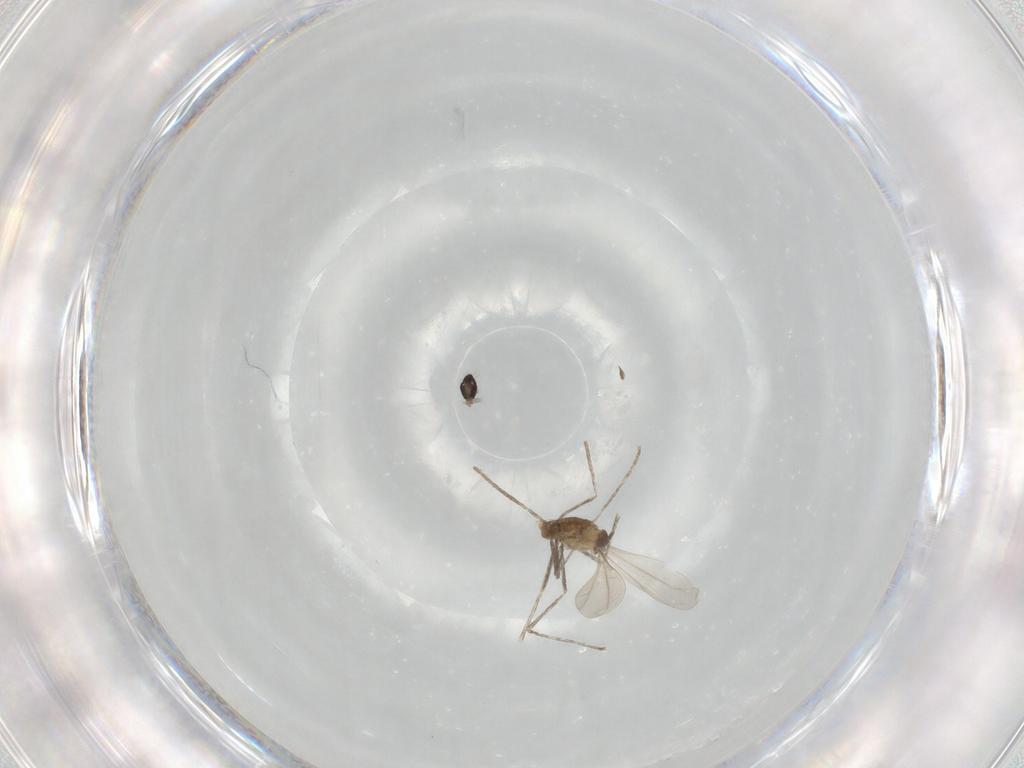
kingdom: Animalia
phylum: Arthropoda
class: Insecta
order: Diptera
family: Cecidomyiidae
